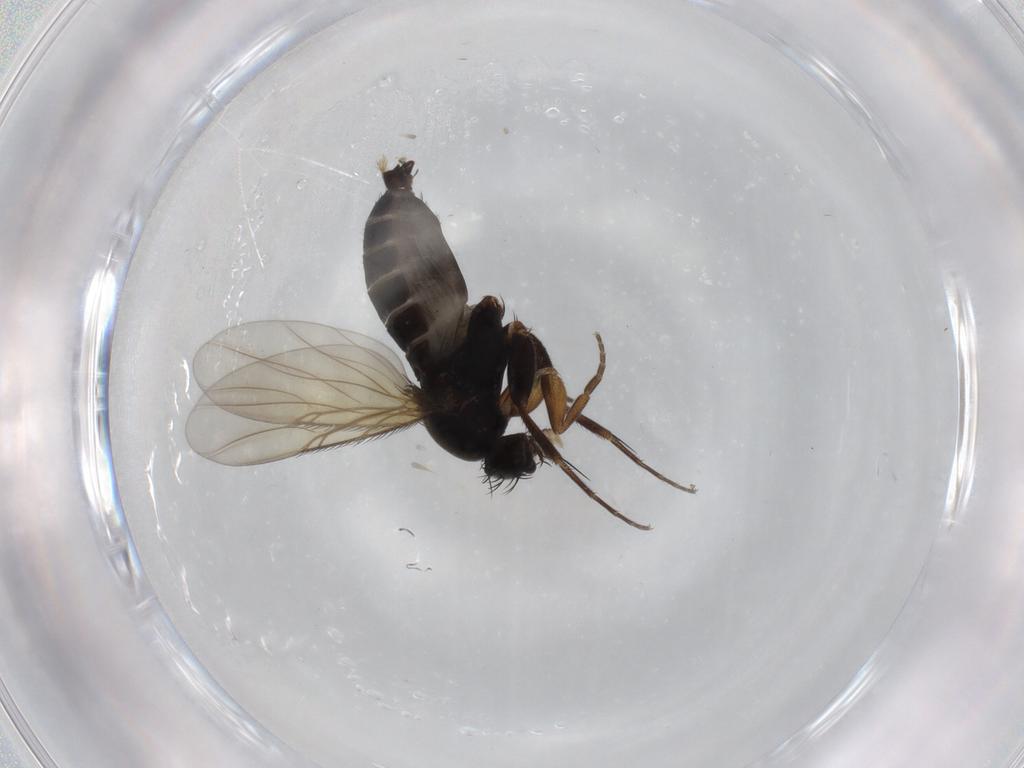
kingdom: Animalia
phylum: Arthropoda
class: Insecta
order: Diptera
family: Phoridae
